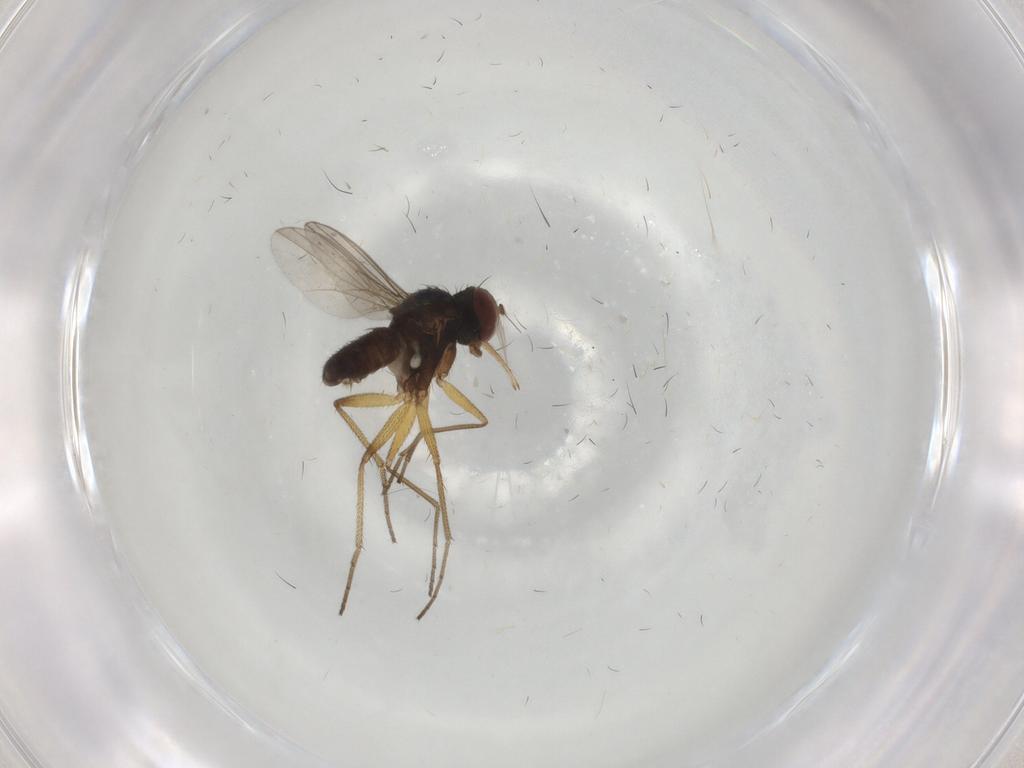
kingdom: Animalia
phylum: Arthropoda
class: Insecta
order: Diptera
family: Dolichopodidae
